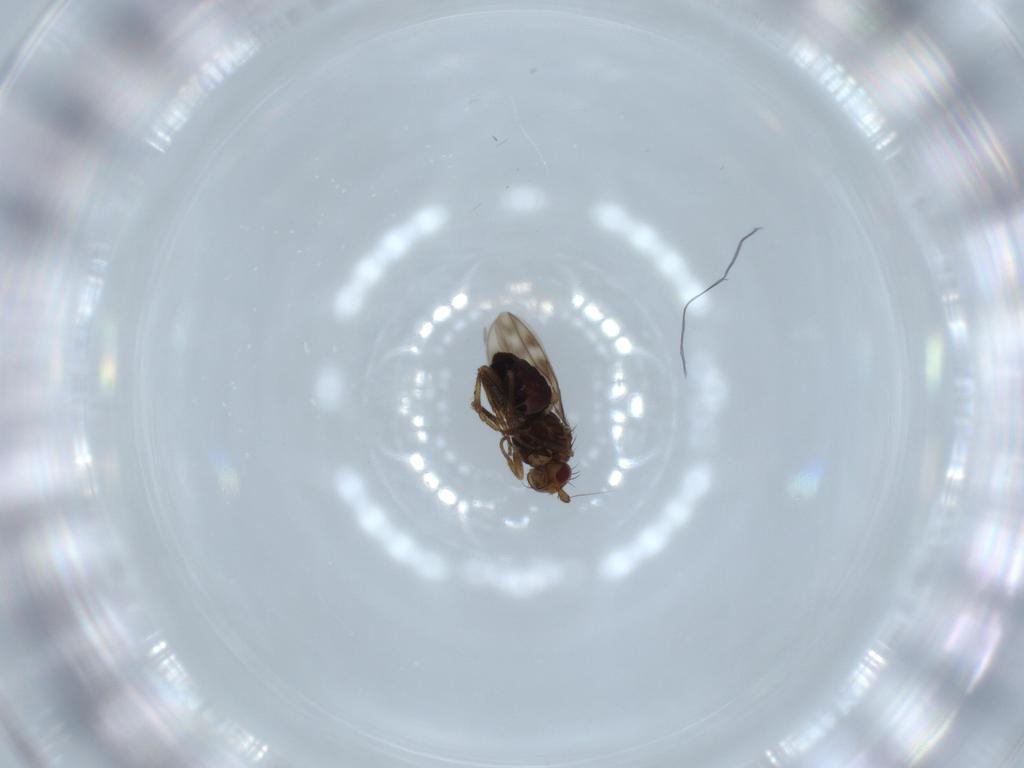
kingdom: Animalia
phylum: Arthropoda
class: Insecta
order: Diptera
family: Sphaeroceridae
